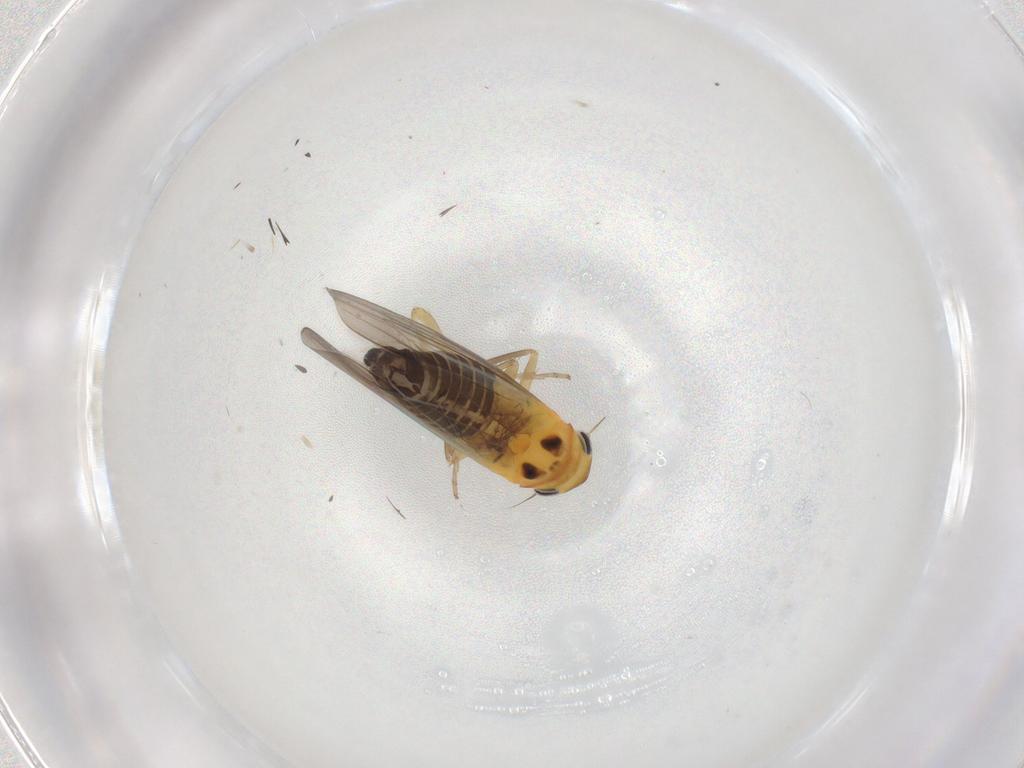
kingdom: Animalia
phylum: Arthropoda
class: Insecta
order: Hemiptera
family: Cicadellidae
